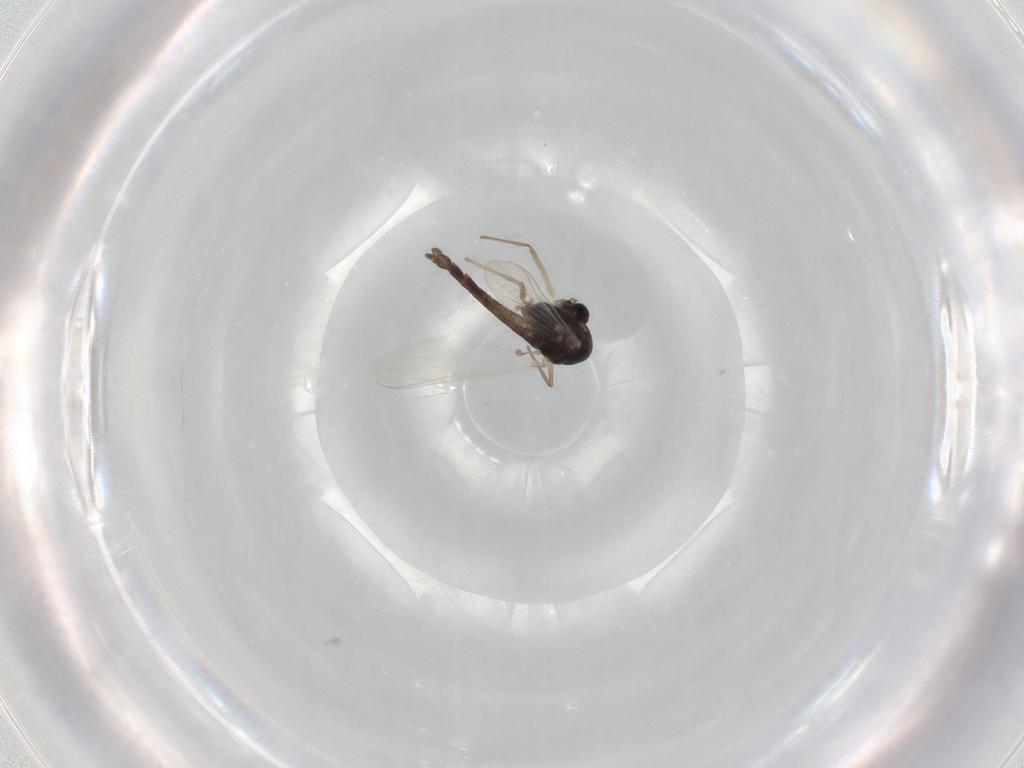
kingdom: Animalia
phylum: Arthropoda
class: Insecta
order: Diptera
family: Chironomidae
